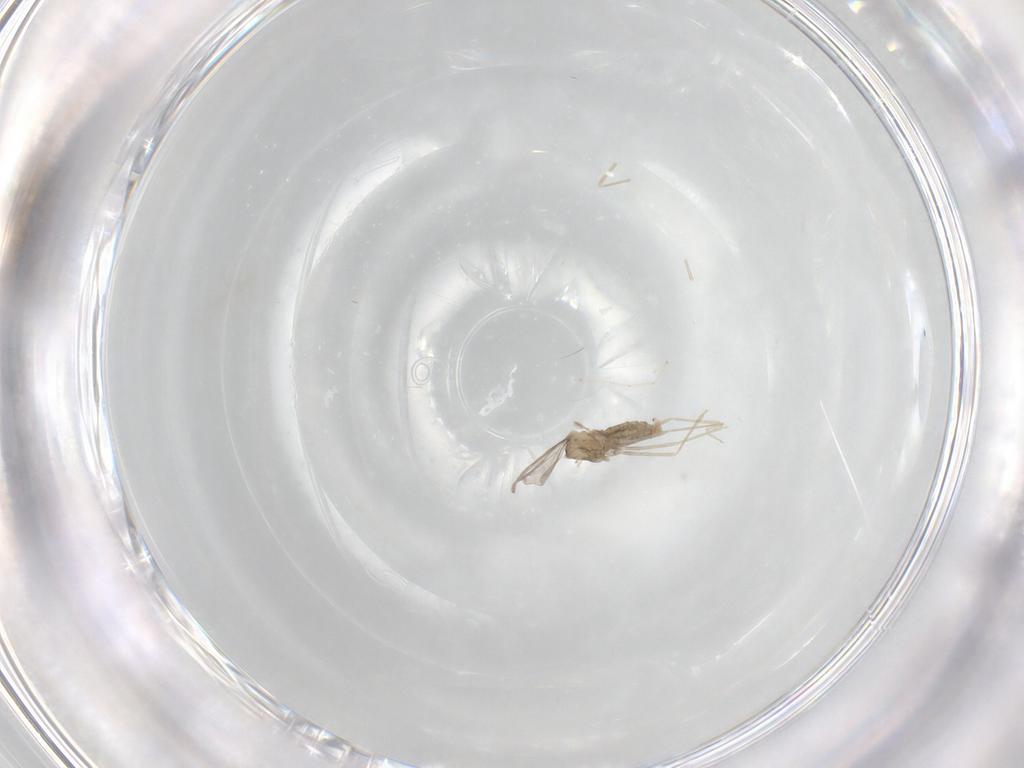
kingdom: Animalia
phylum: Arthropoda
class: Insecta
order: Diptera
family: Cecidomyiidae
